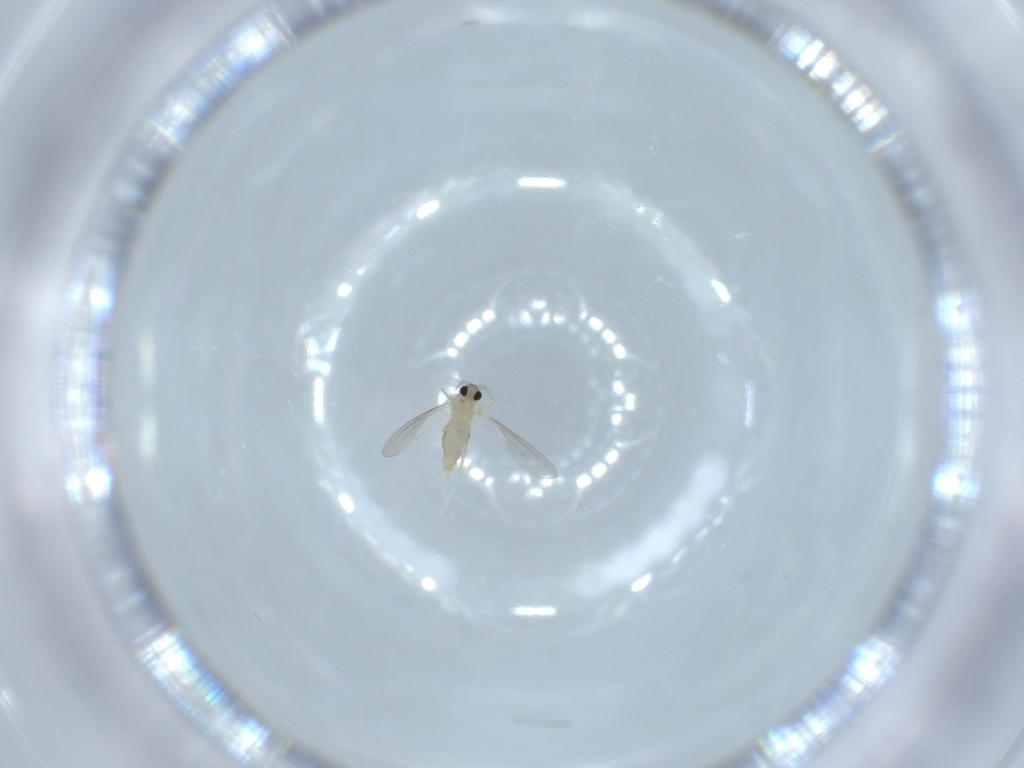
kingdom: Animalia
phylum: Arthropoda
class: Insecta
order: Diptera
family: Cecidomyiidae
